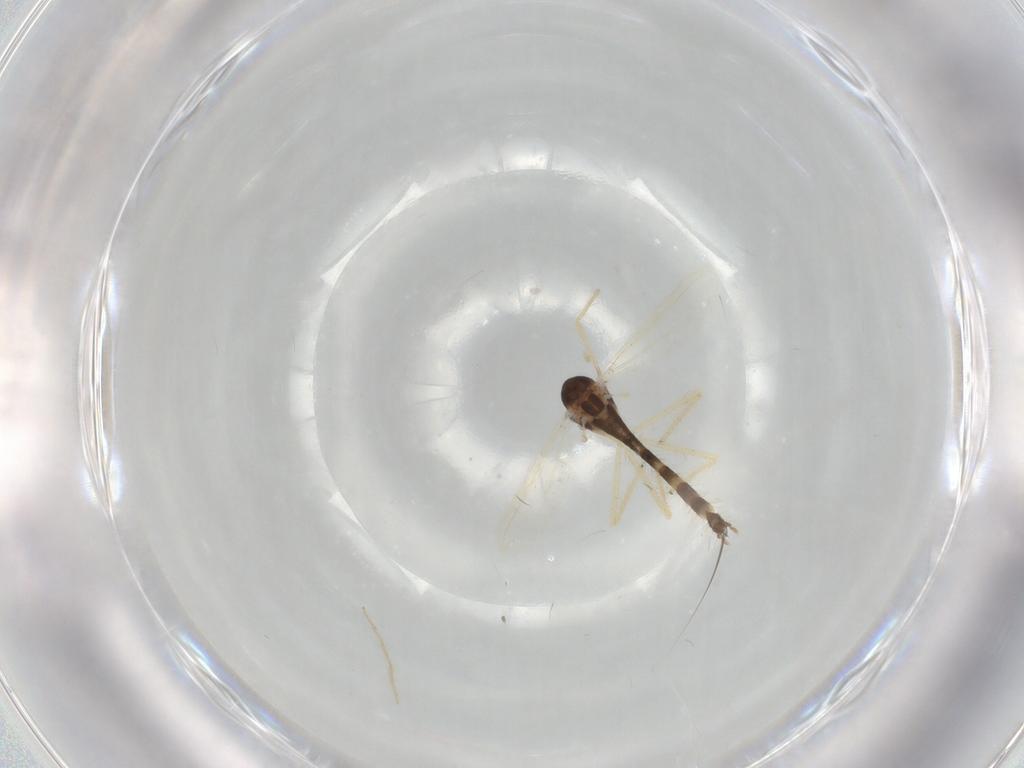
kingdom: Animalia
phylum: Arthropoda
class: Insecta
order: Diptera
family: Chironomidae
